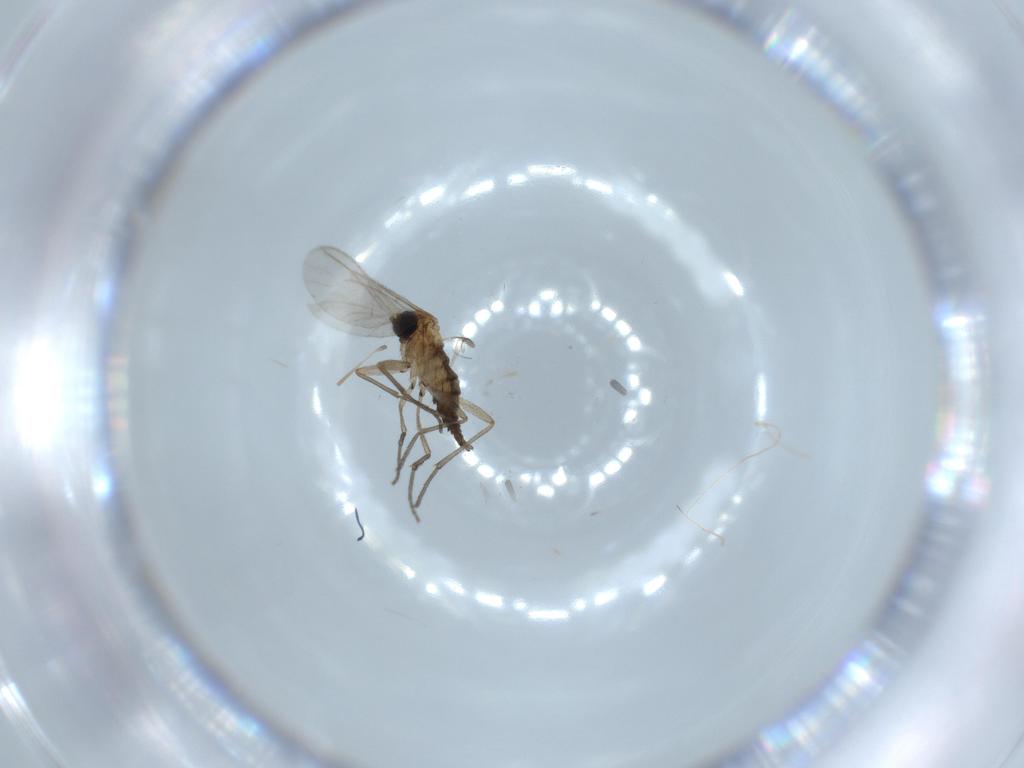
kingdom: Animalia
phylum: Arthropoda
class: Insecta
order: Diptera
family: Sciaridae
